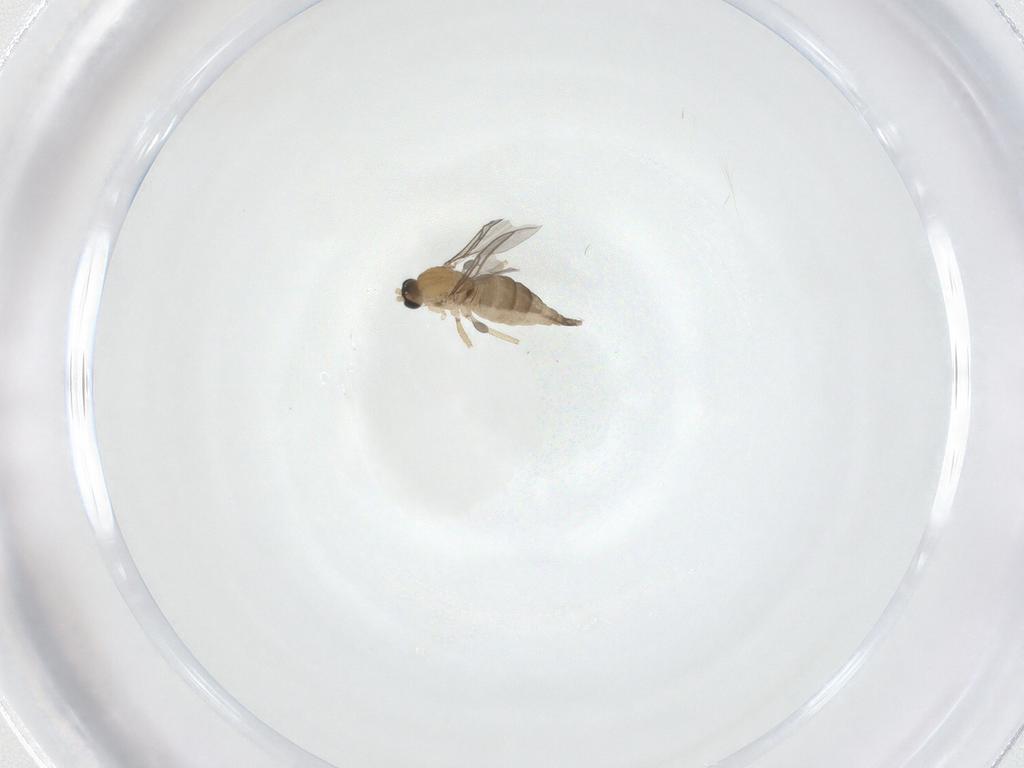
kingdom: Animalia
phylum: Arthropoda
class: Insecta
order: Diptera
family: Sciaridae
